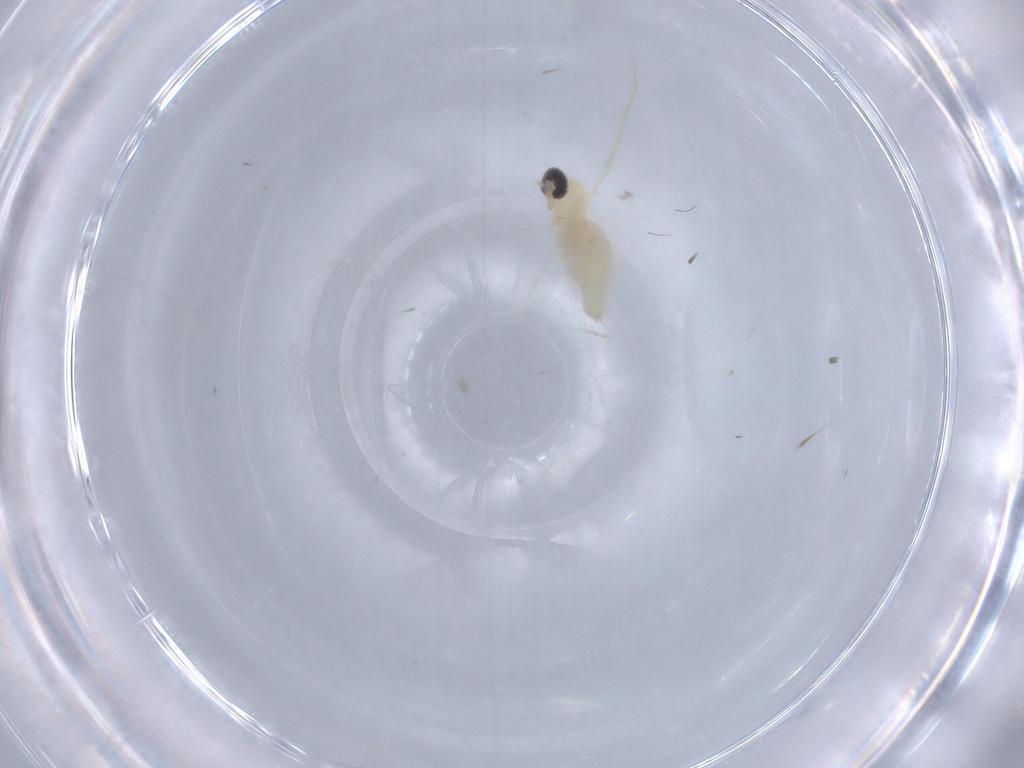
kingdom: Animalia
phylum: Arthropoda
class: Insecta
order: Diptera
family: Cecidomyiidae
